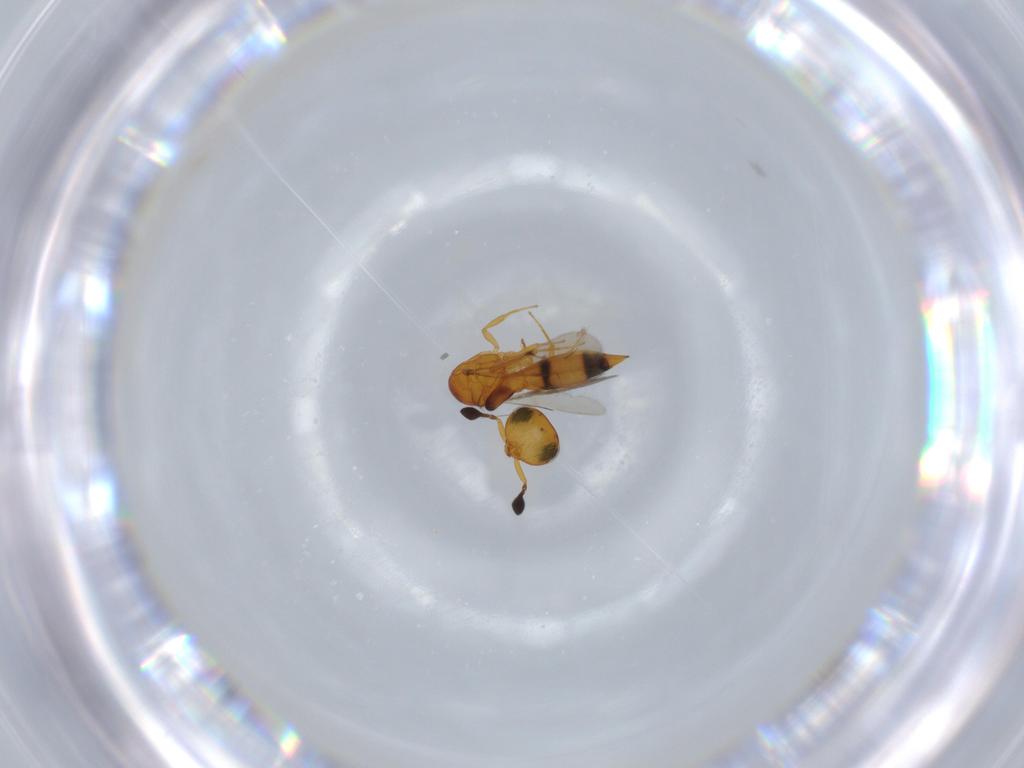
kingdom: Animalia
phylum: Arthropoda
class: Insecta
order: Hymenoptera
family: Scelionidae
